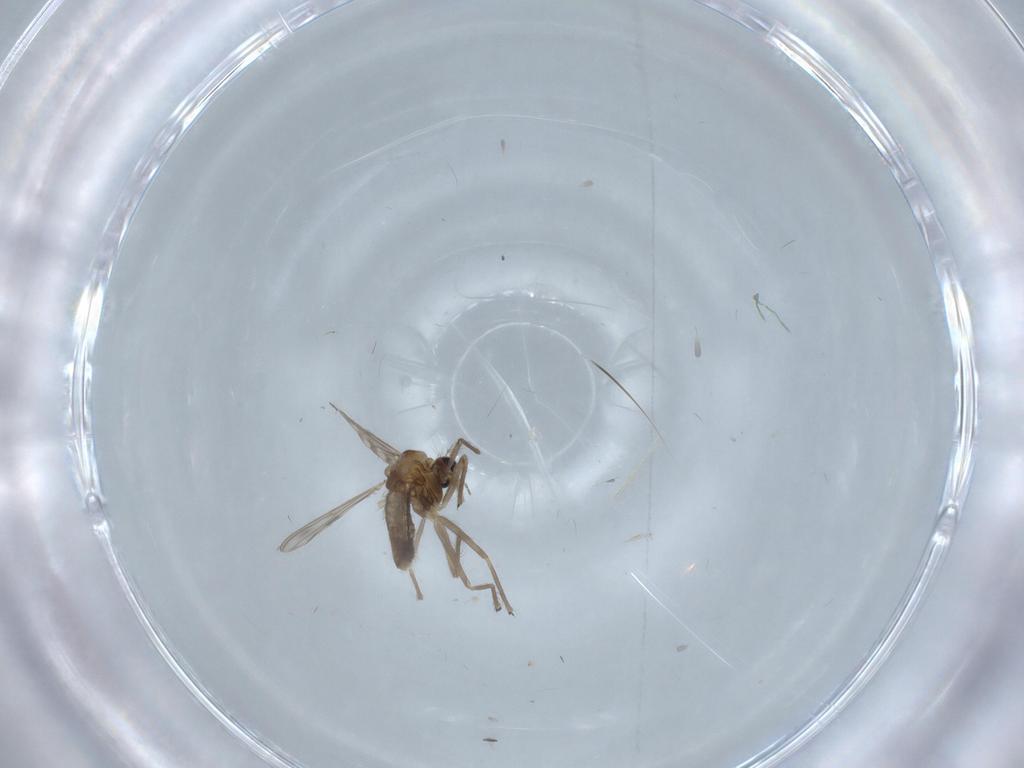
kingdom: Animalia
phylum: Arthropoda
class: Insecta
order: Diptera
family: Chironomidae
